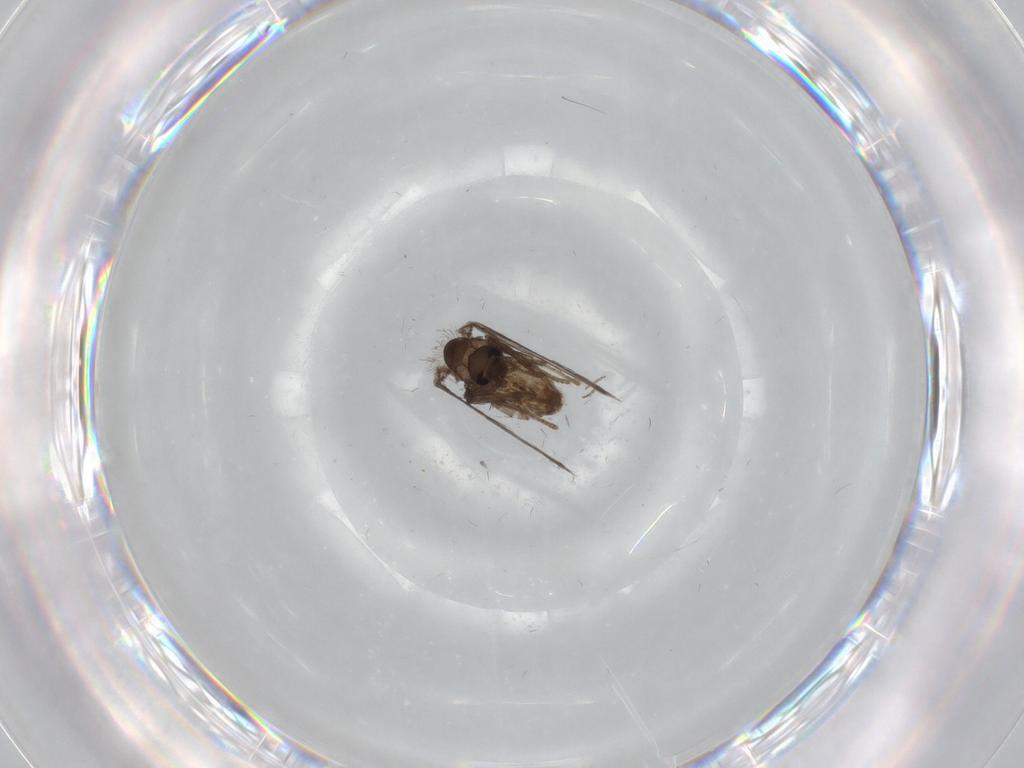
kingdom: Animalia
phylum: Arthropoda
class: Insecta
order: Diptera
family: Psychodidae
